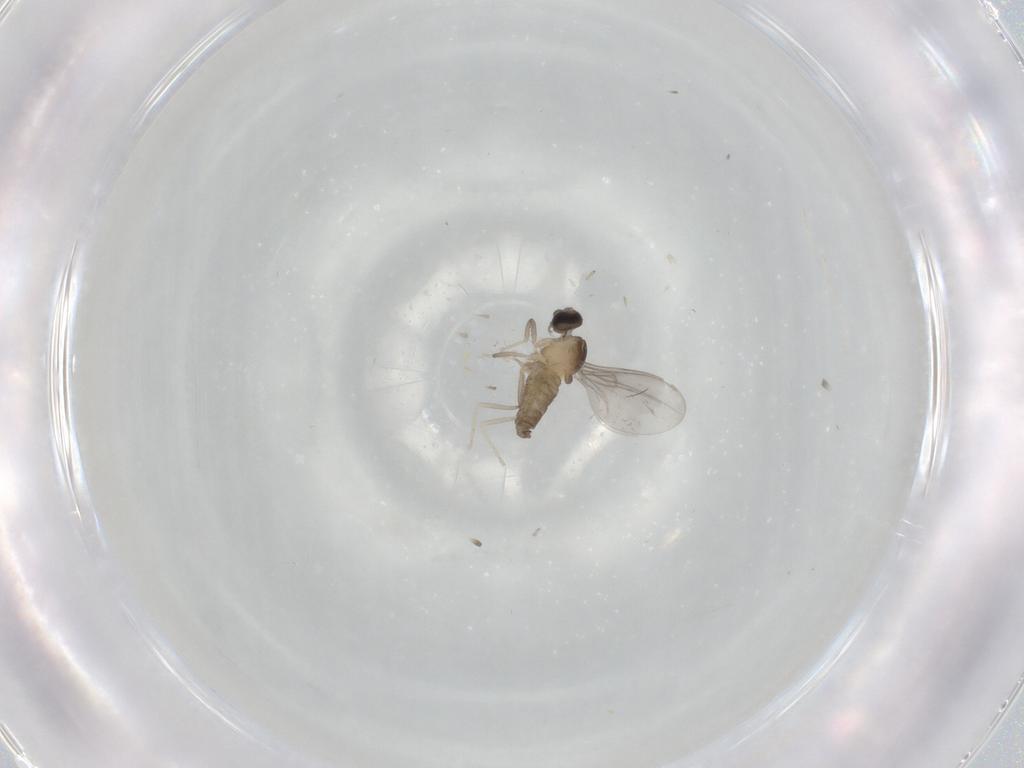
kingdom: Animalia
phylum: Arthropoda
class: Insecta
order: Diptera
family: Cecidomyiidae
